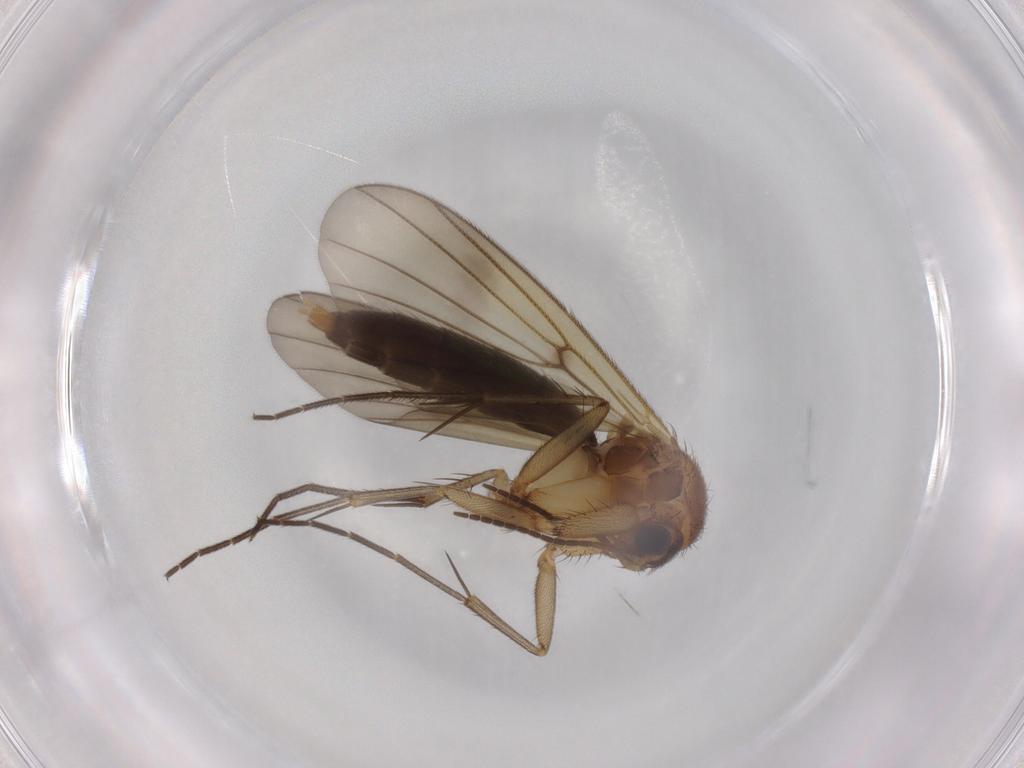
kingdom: Animalia
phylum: Arthropoda
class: Insecta
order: Diptera
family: Mycetophilidae
